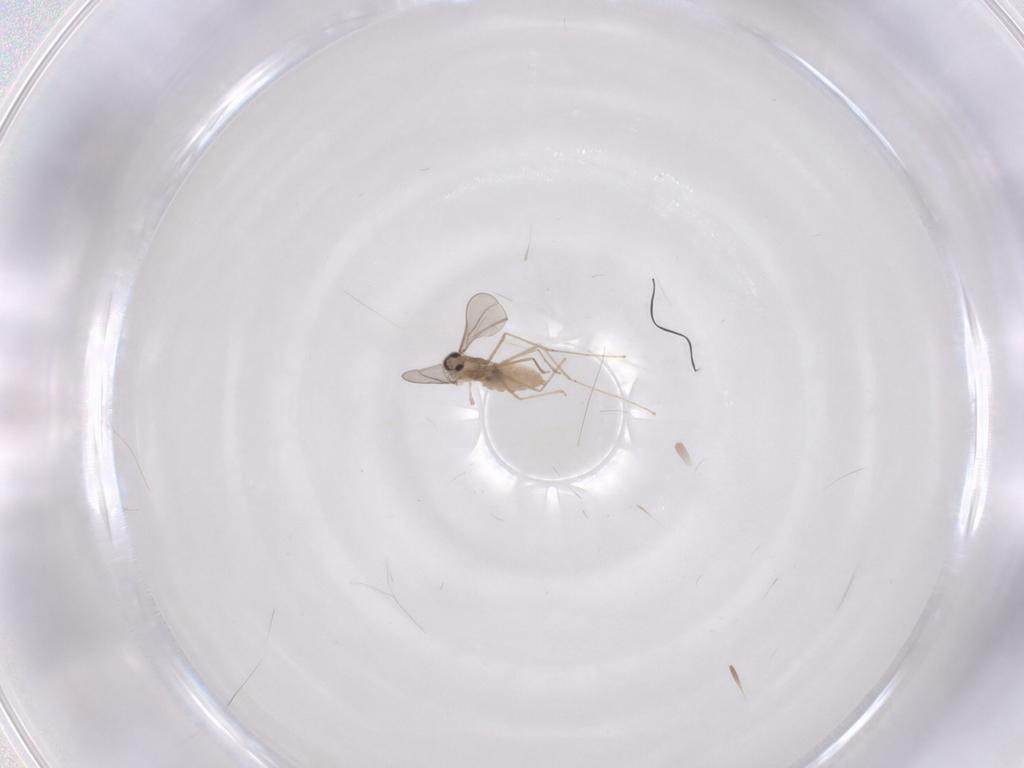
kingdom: Animalia
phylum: Arthropoda
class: Insecta
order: Diptera
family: Cecidomyiidae
